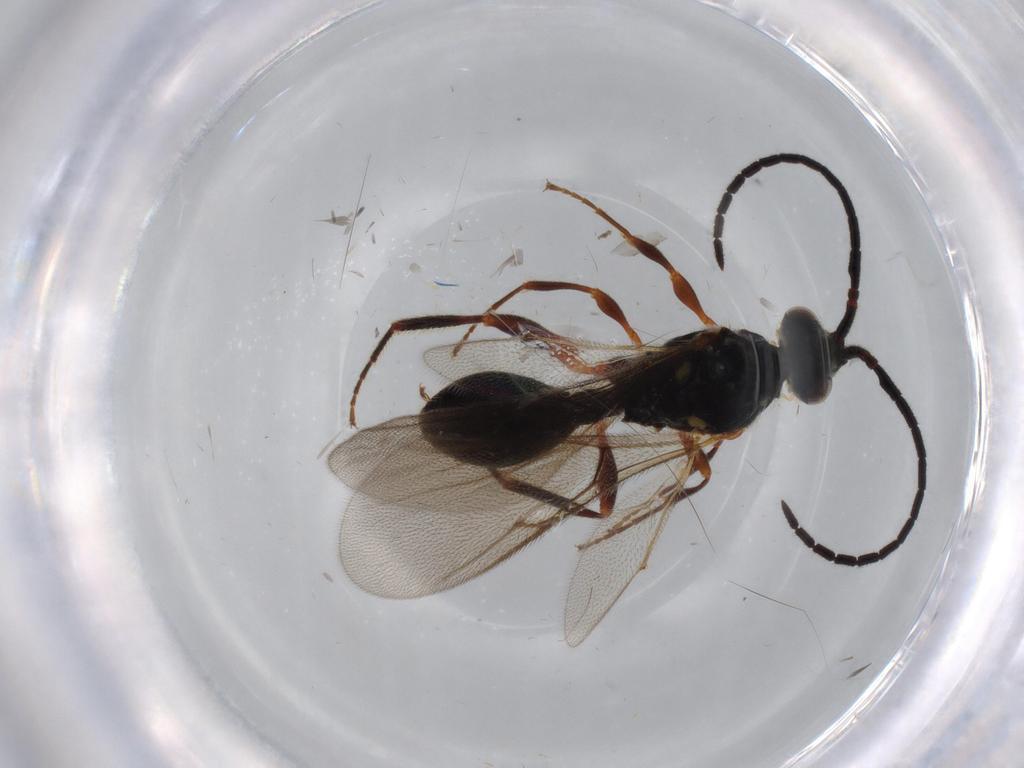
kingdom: Animalia
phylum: Arthropoda
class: Insecta
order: Hymenoptera
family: Diapriidae
